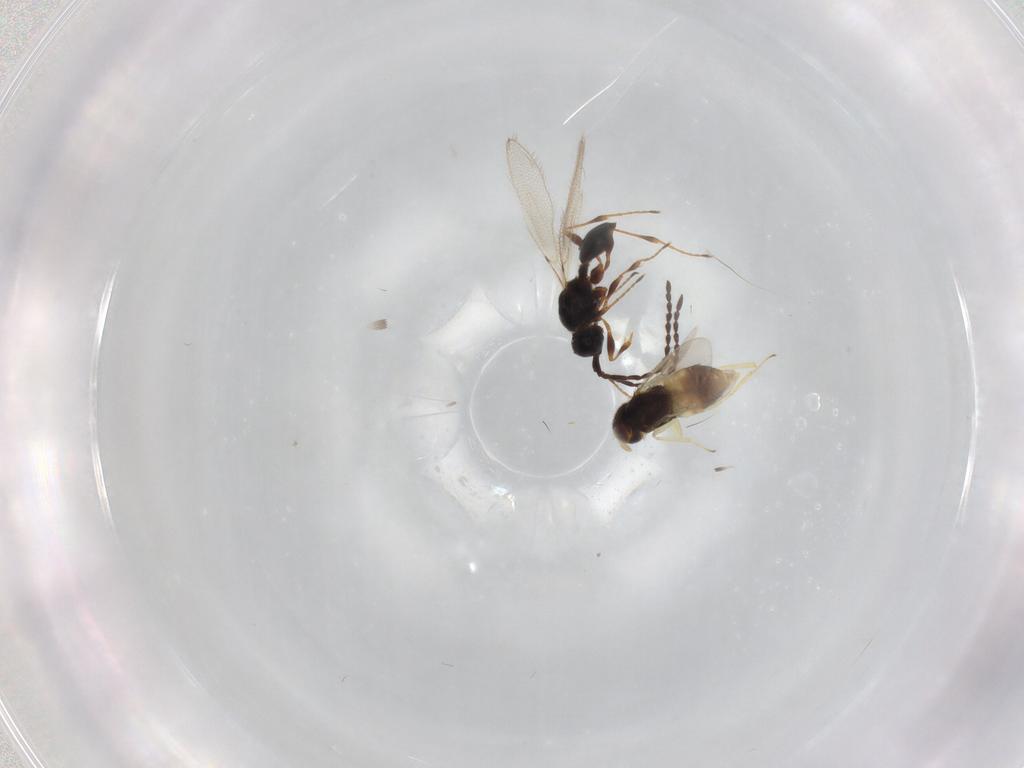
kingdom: Animalia
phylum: Arthropoda
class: Insecta
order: Hymenoptera
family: Aphelinidae
